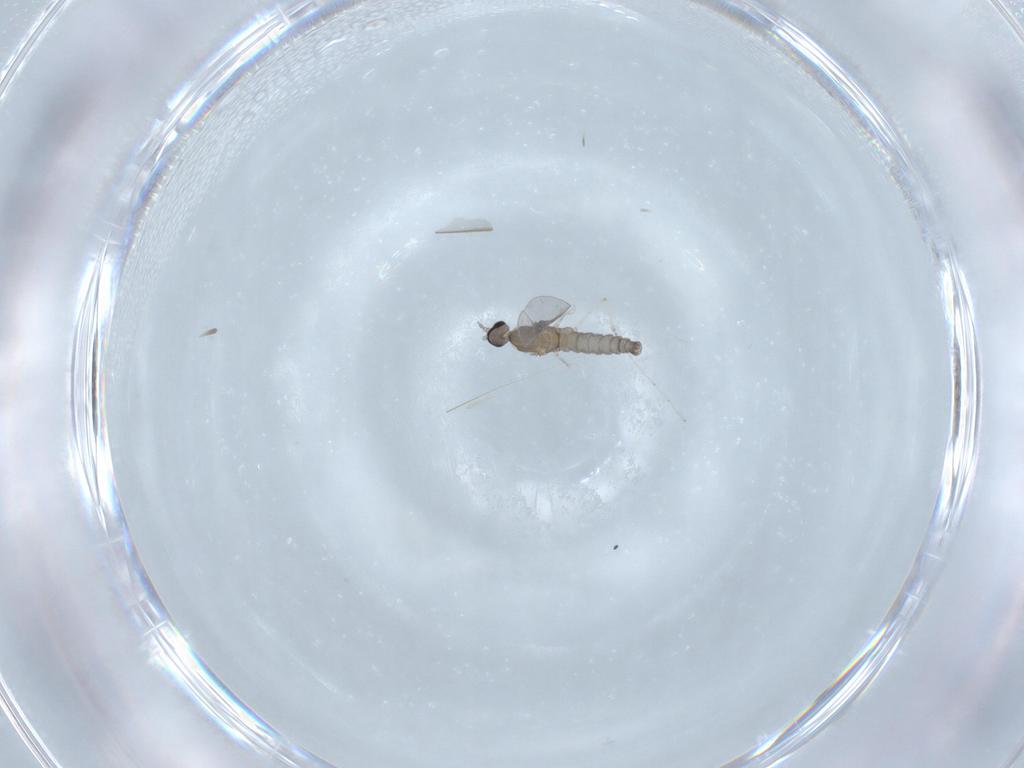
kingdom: Animalia
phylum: Arthropoda
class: Insecta
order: Diptera
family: Cecidomyiidae
